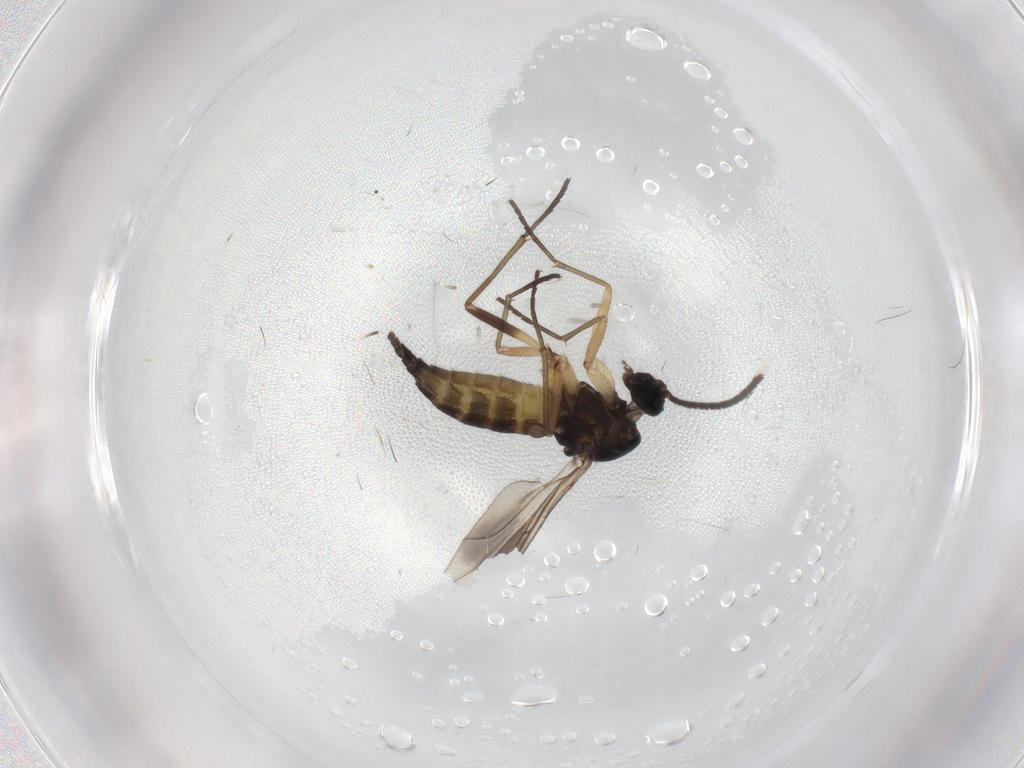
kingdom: Animalia
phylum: Arthropoda
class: Insecta
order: Diptera
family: Sciaridae
